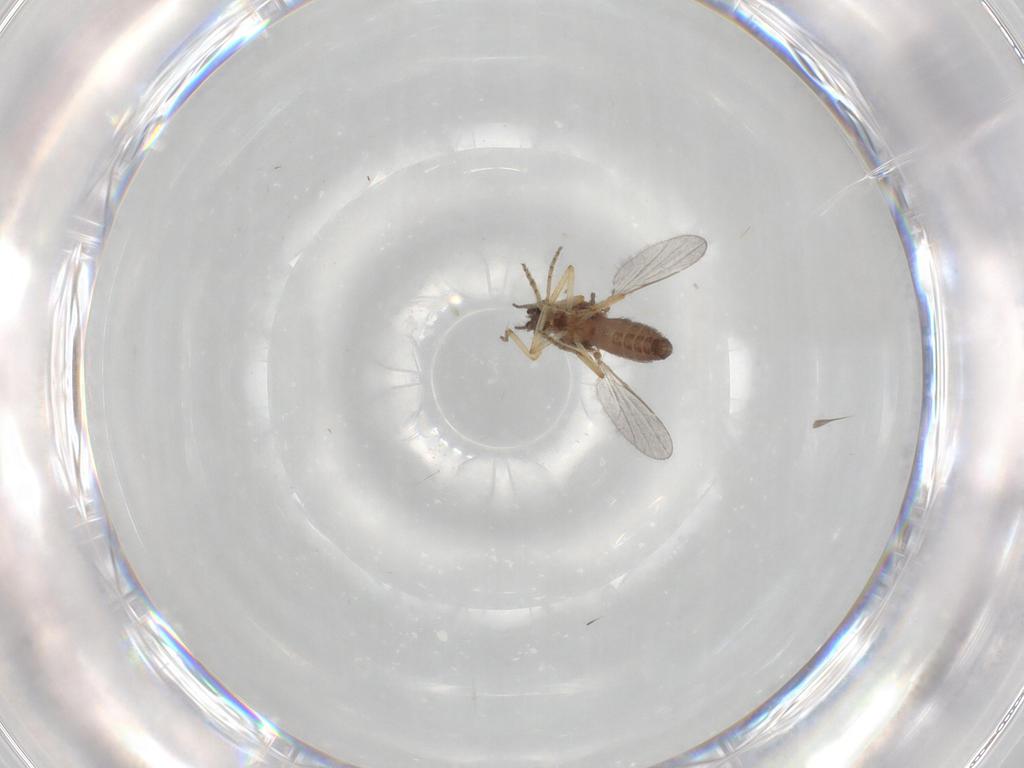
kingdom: Animalia
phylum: Arthropoda
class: Insecta
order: Diptera
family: Ceratopogonidae
